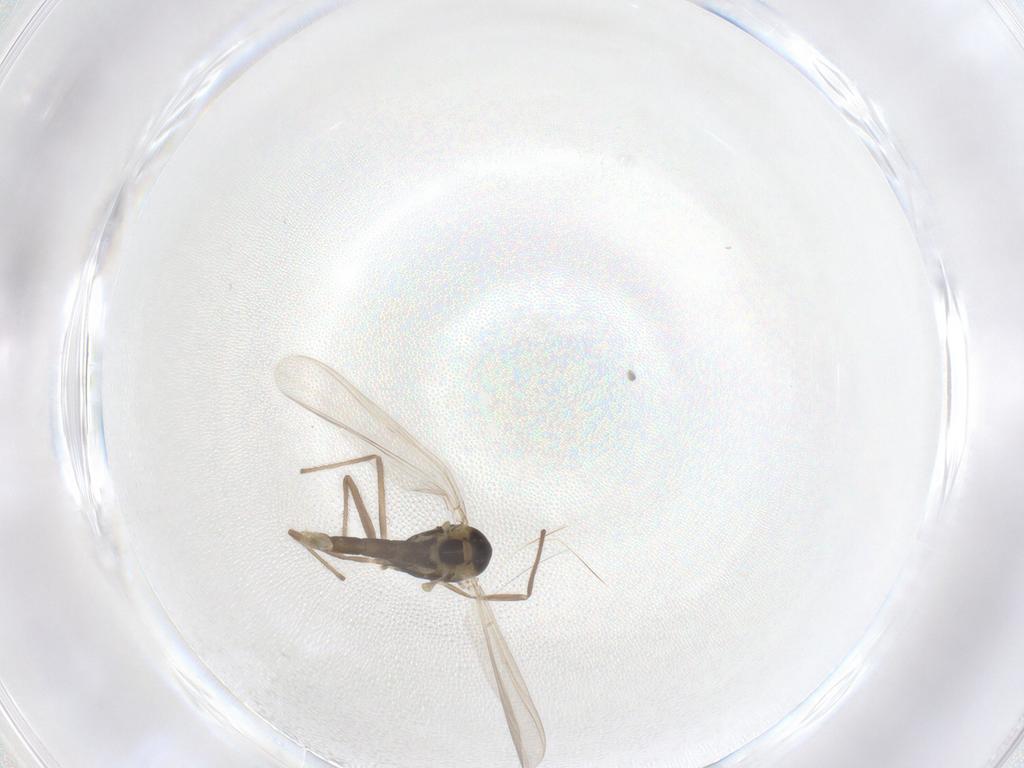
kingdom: Animalia
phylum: Arthropoda
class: Insecta
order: Diptera
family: Chironomidae
